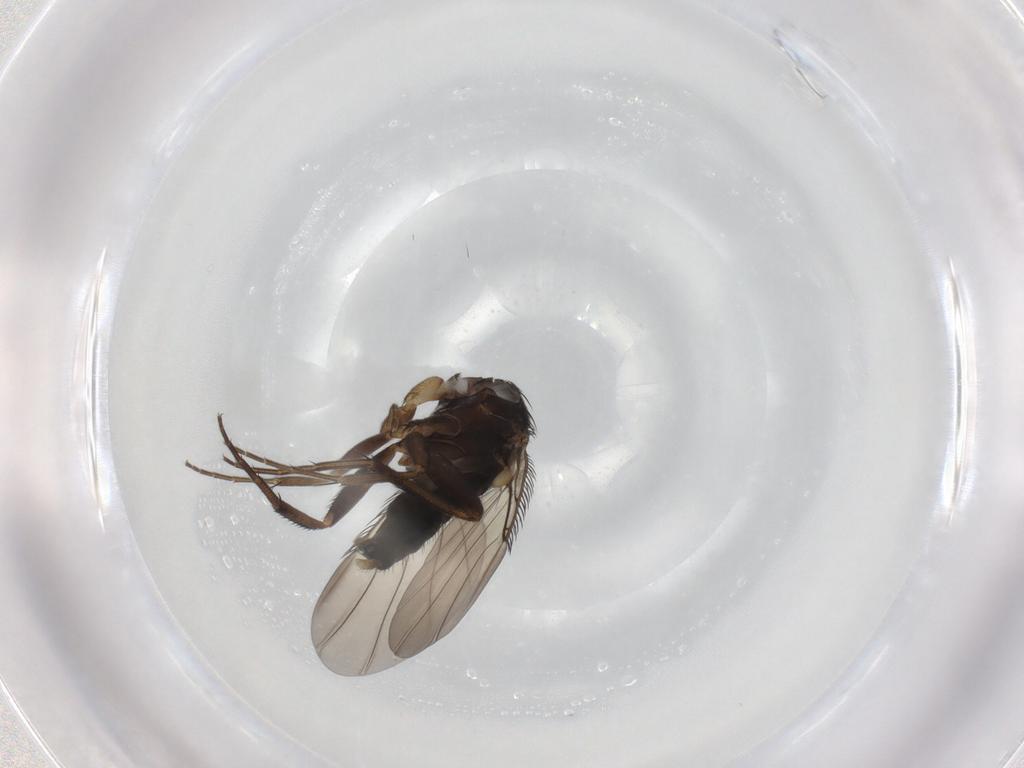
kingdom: Animalia
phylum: Arthropoda
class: Insecta
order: Diptera
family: Phoridae
